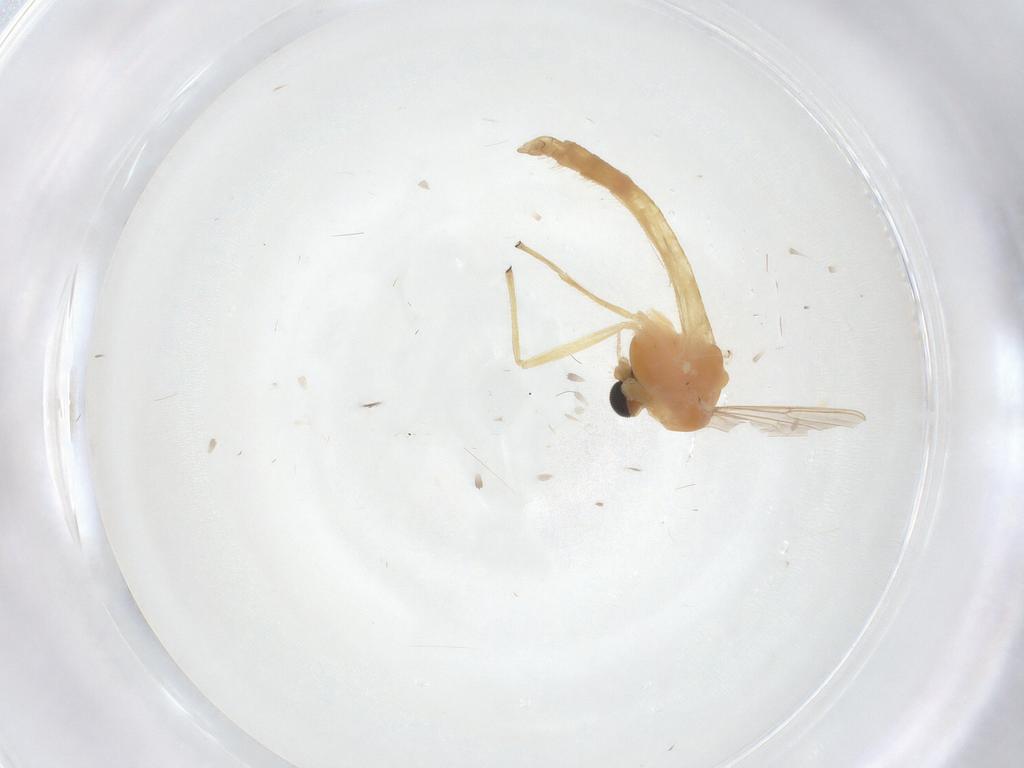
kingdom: Animalia
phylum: Arthropoda
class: Insecta
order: Diptera
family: Chironomidae
